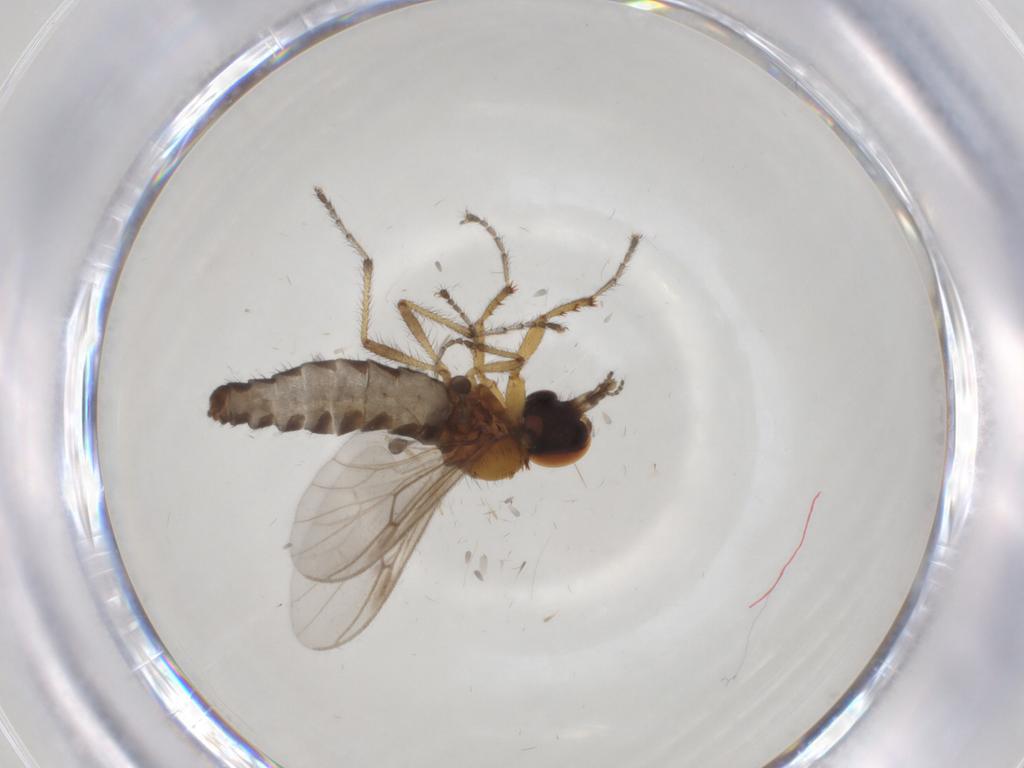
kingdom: Animalia
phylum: Arthropoda
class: Insecta
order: Diptera
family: Bibionidae
